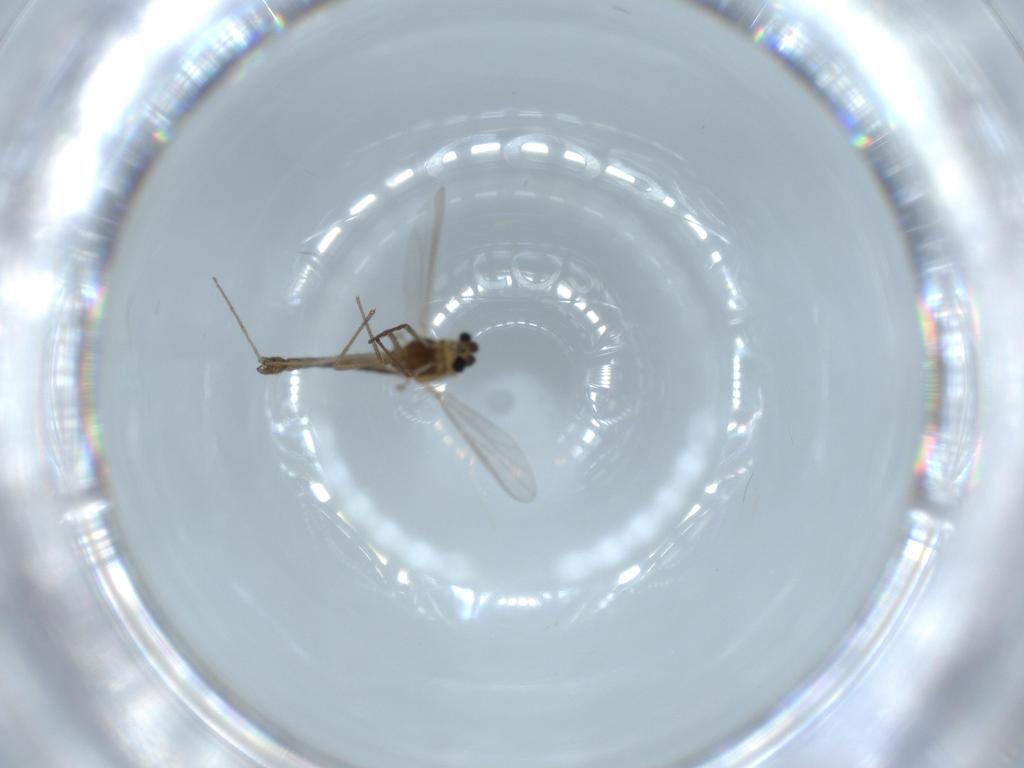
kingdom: Animalia
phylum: Arthropoda
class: Insecta
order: Diptera
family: Chironomidae
